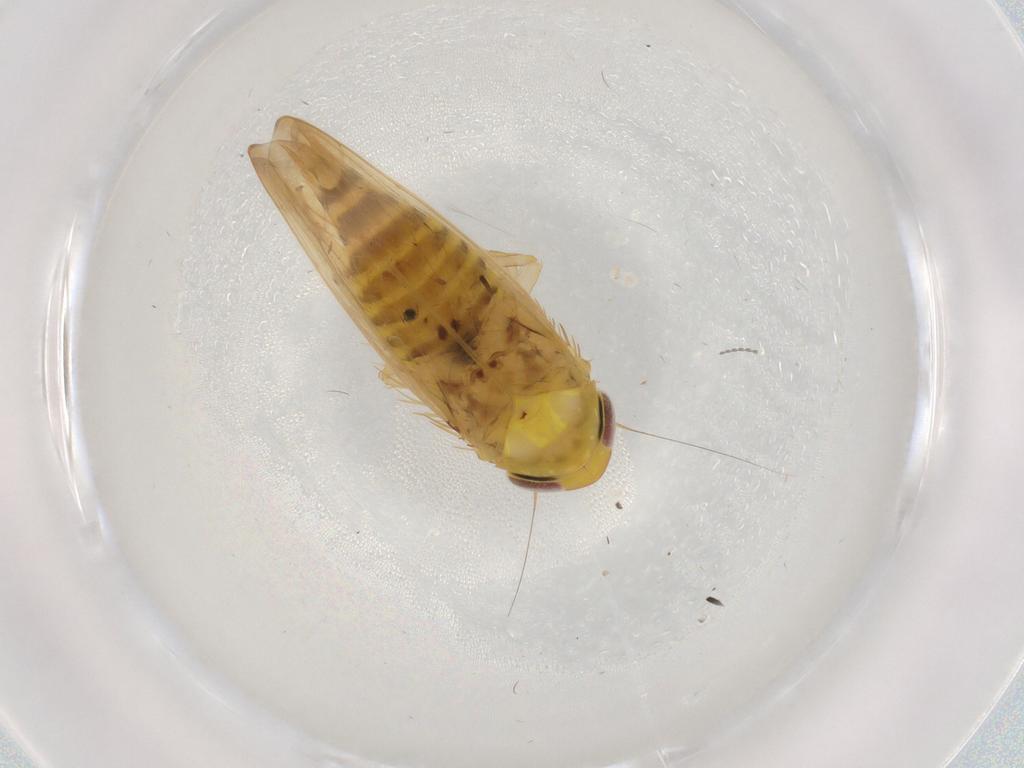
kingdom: Animalia
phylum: Arthropoda
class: Insecta
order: Hemiptera
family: Cicadellidae
